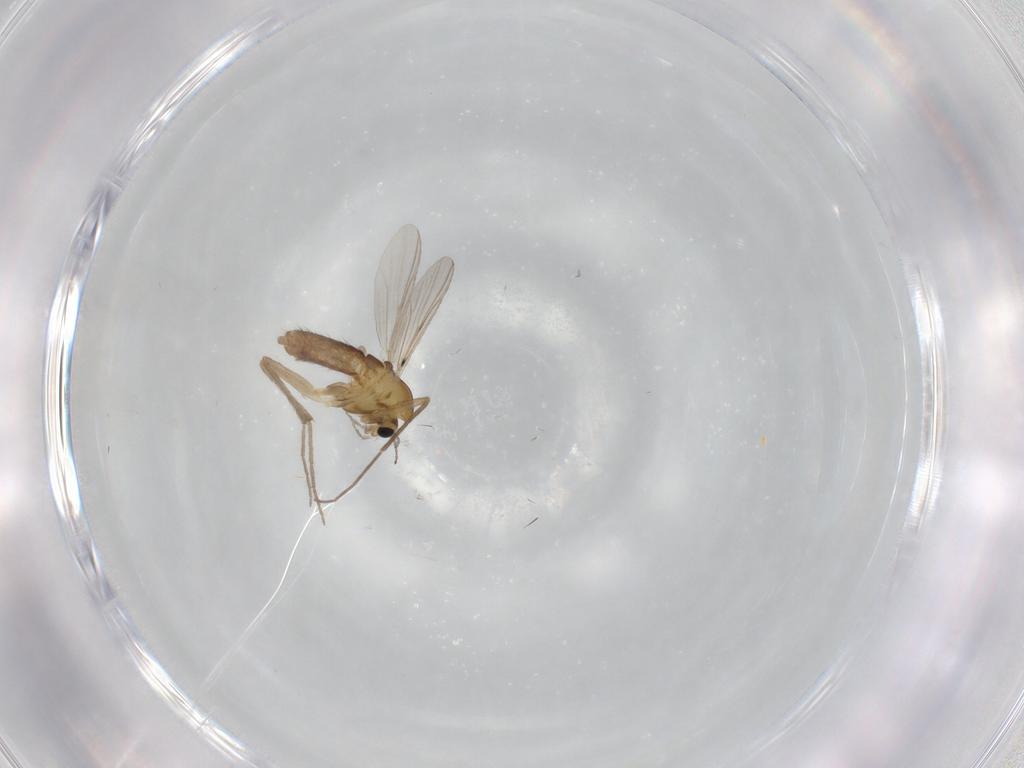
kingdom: Animalia
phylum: Arthropoda
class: Insecta
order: Diptera
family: Chironomidae
